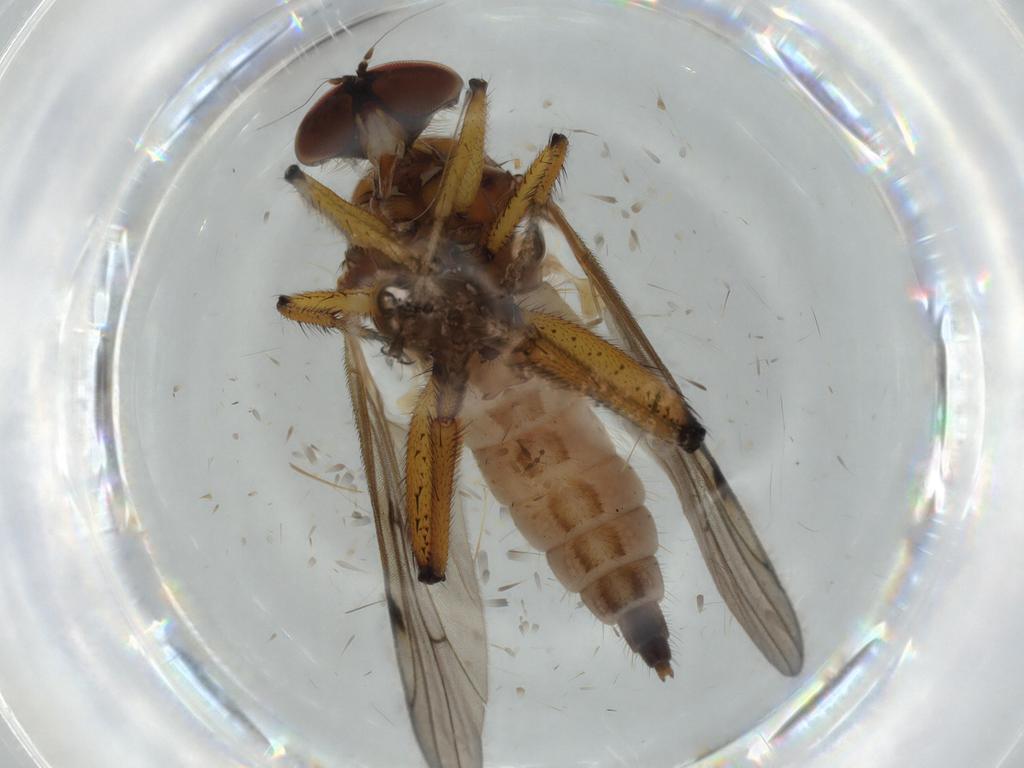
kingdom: Animalia
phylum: Arthropoda
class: Insecta
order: Diptera
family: Hybotidae
